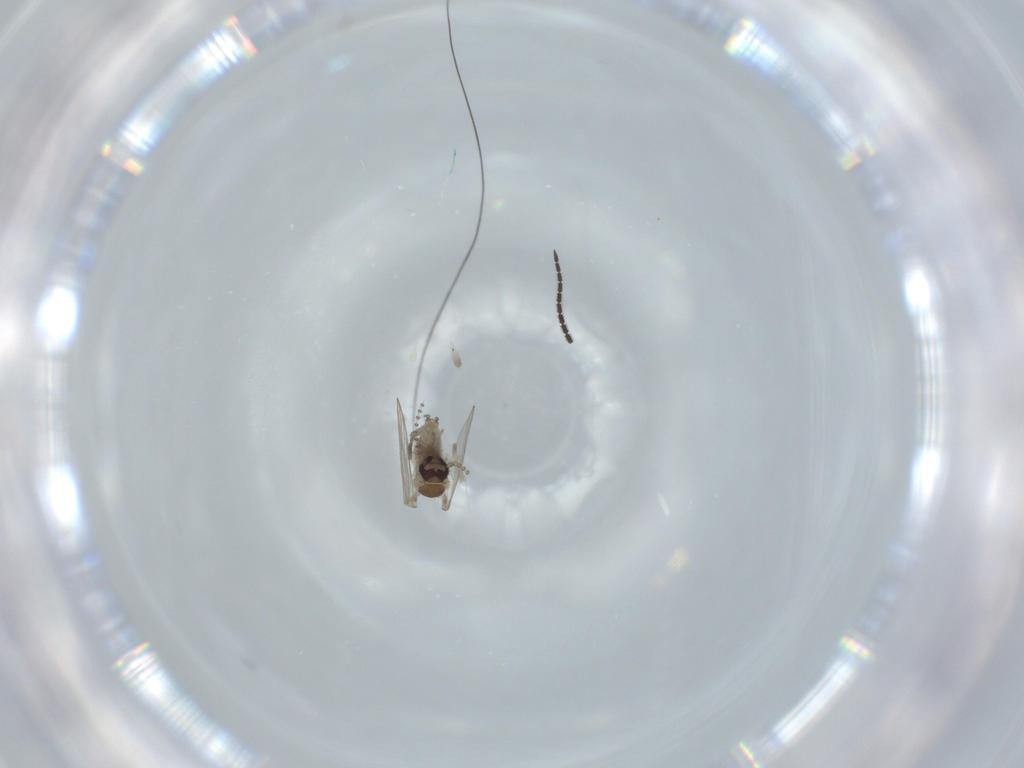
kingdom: Animalia
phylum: Arthropoda
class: Insecta
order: Diptera
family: Psychodidae
